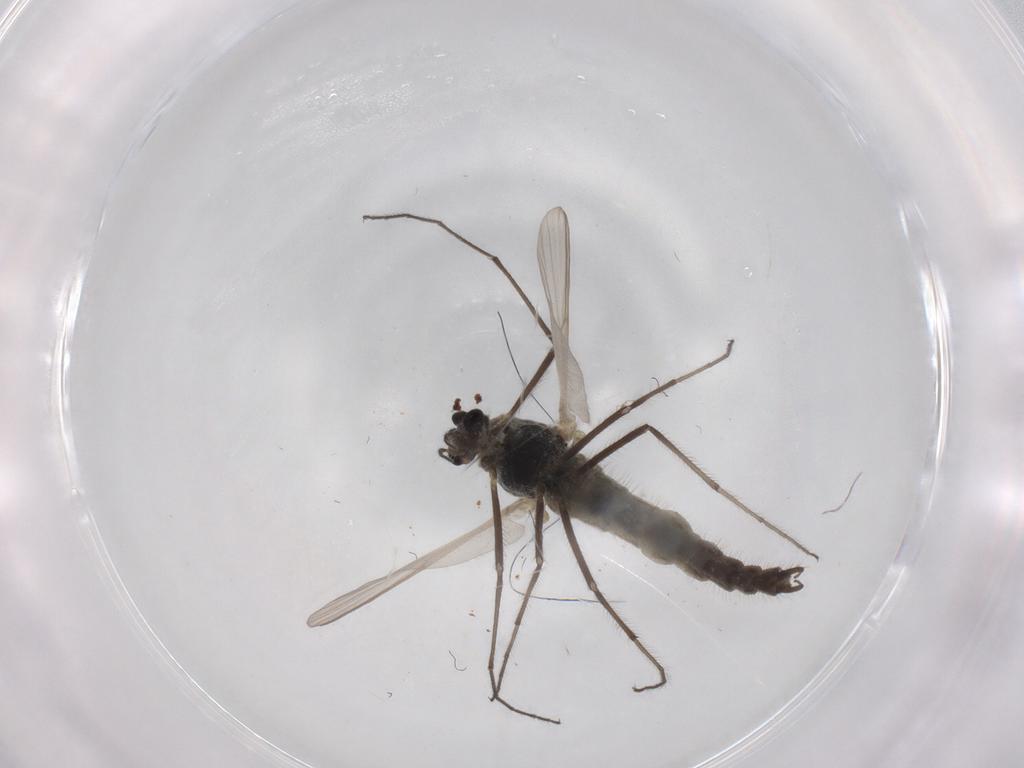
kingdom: Animalia
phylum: Arthropoda
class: Insecta
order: Diptera
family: Chironomidae
